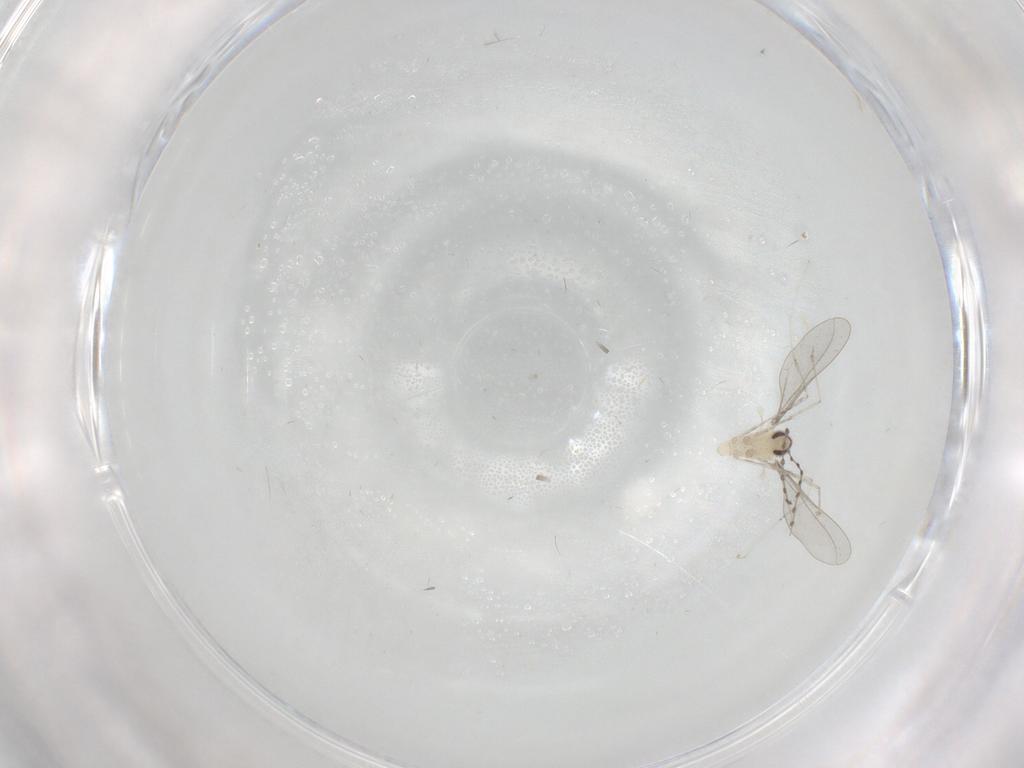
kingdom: Animalia
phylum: Arthropoda
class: Insecta
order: Diptera
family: Cecidomyiidae
